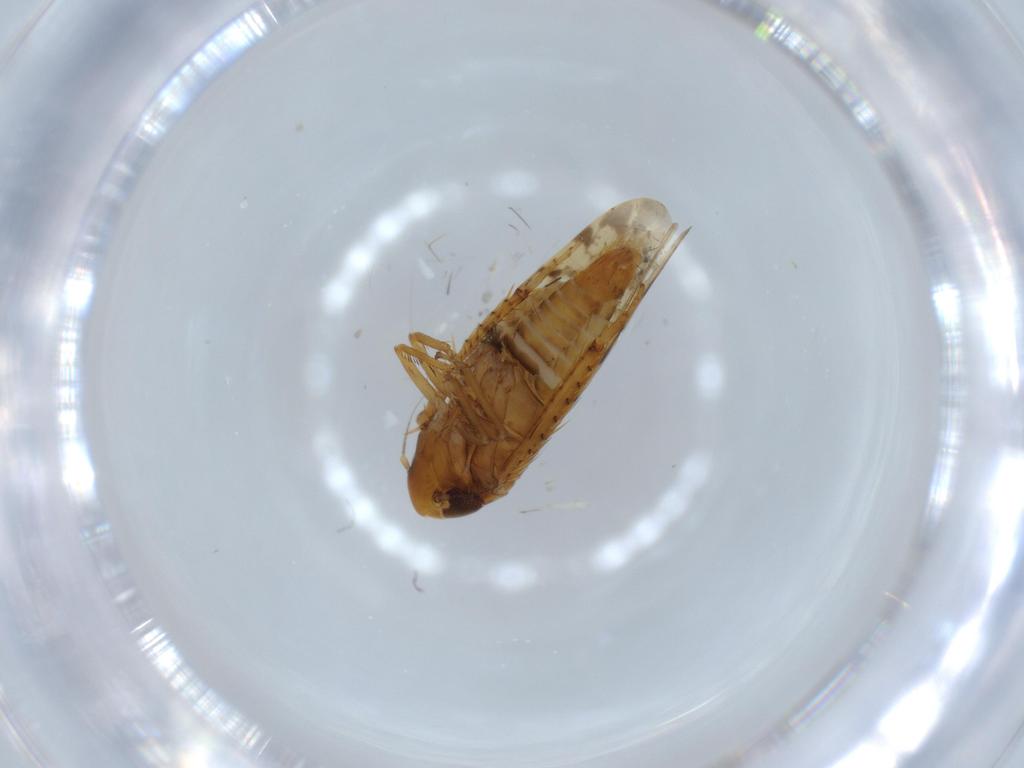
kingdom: Animalia
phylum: Arthropoda
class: Insecta
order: Hemiptera
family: Cicadellidae
